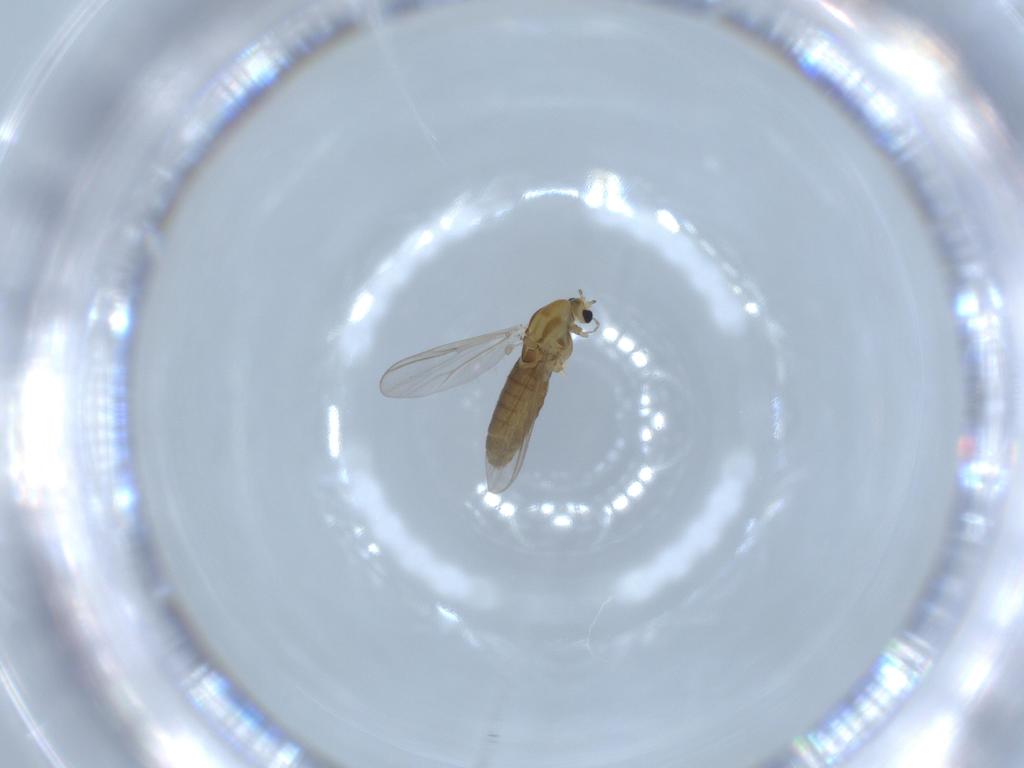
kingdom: Animalia
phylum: Arthropoda
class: Insecta
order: Diptera
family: Chironomidae
